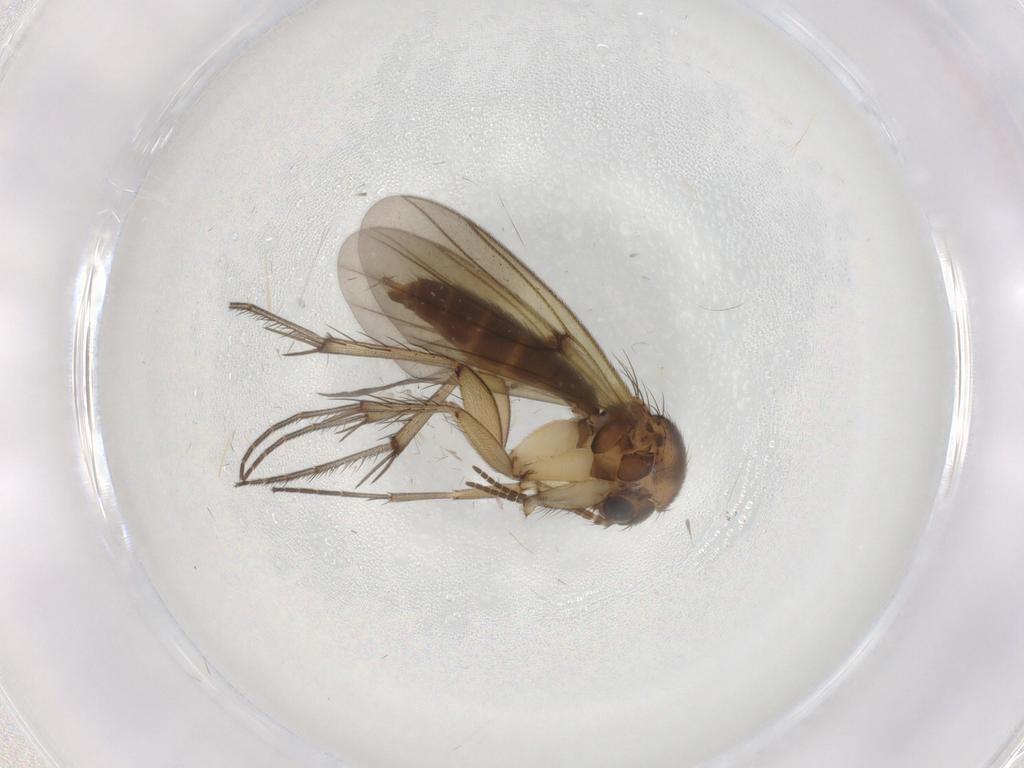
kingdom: Animalia
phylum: Arthropoda
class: Insecta
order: Diptera
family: Mycetophilidae
